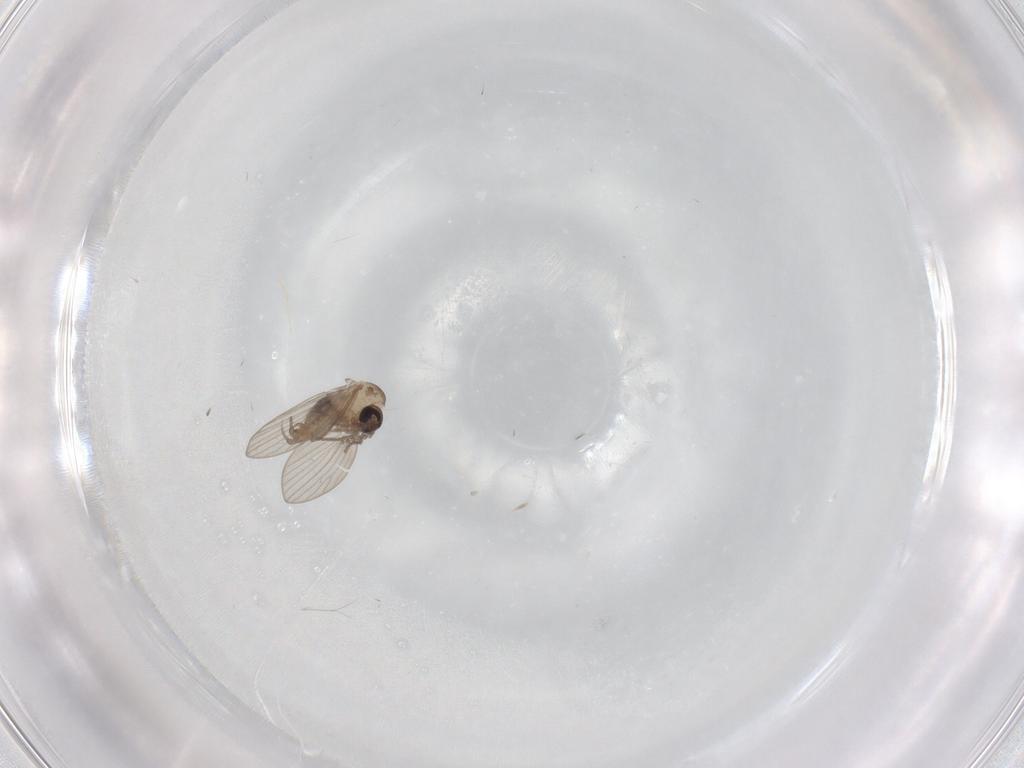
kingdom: Animalia
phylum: Arthropoda
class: Insecta
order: Diptera
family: Psychodidae
